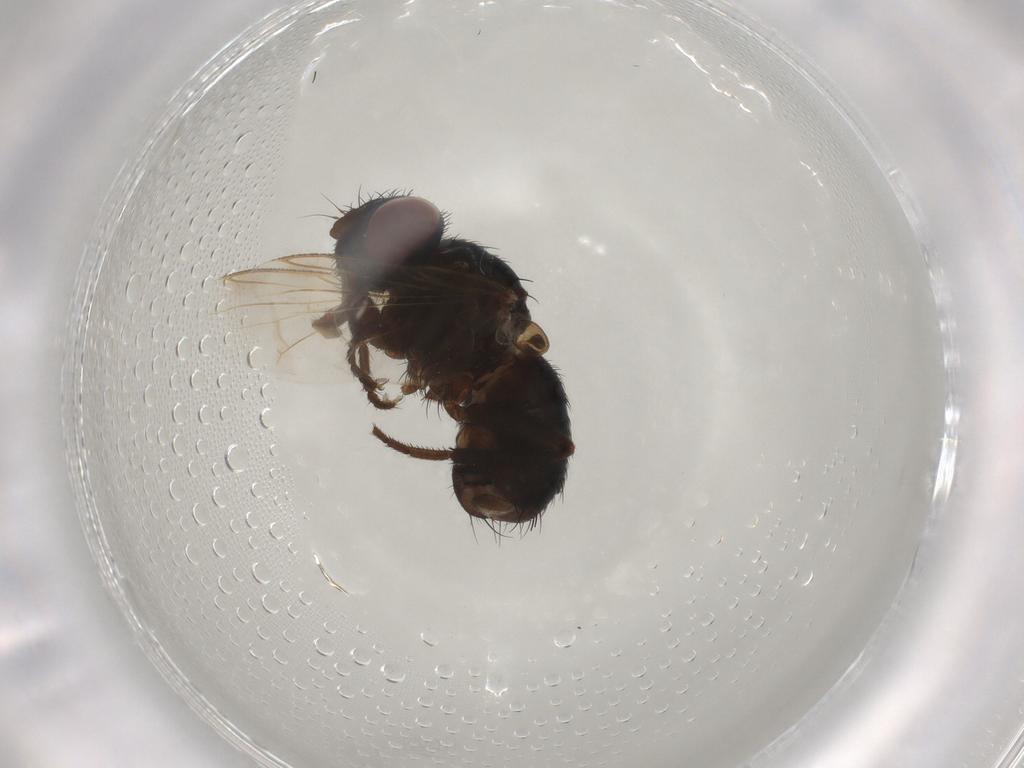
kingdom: Animalia
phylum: Arthropoda
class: Insecta
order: Diptera
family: Tachinidae
